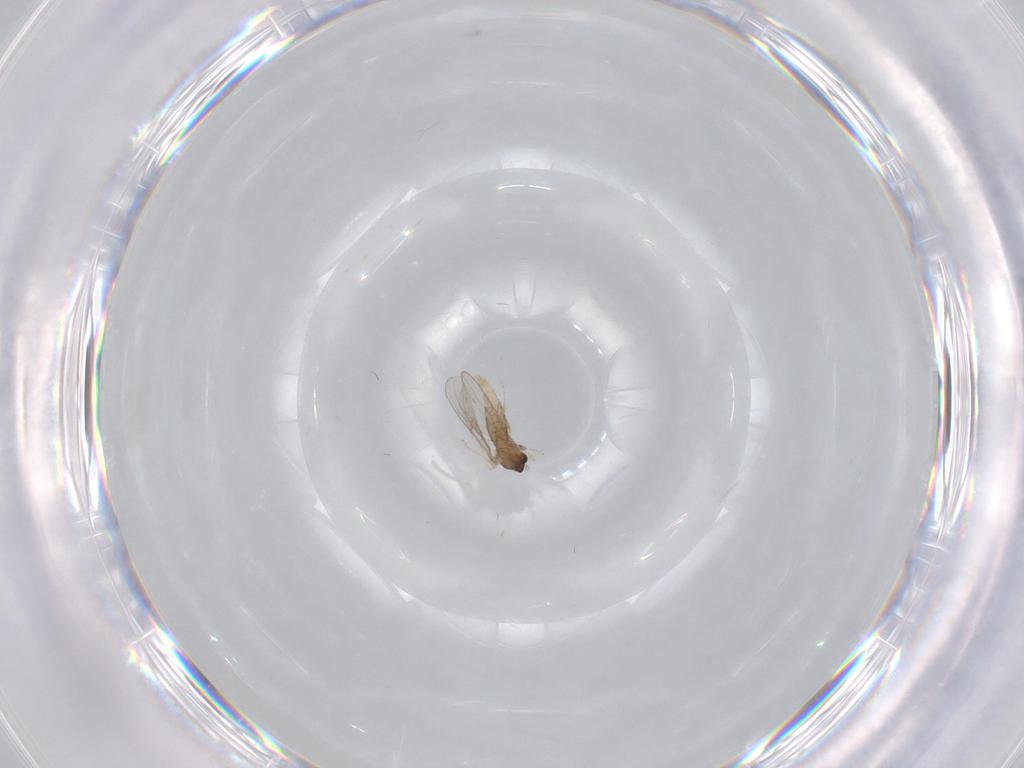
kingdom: Animalia
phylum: Arthropoda
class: Insecta
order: Diptera
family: Cecidomyiidae
